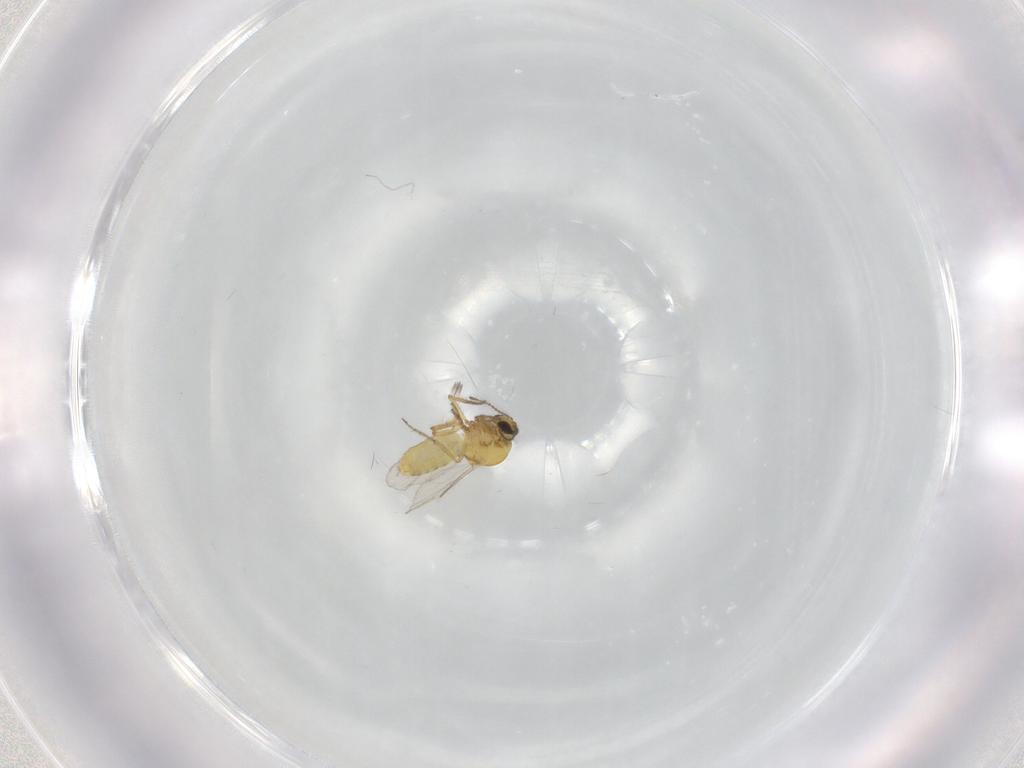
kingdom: Animalia
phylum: Arthropoda
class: Insecta
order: Diptera
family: Ceratopogonidae
